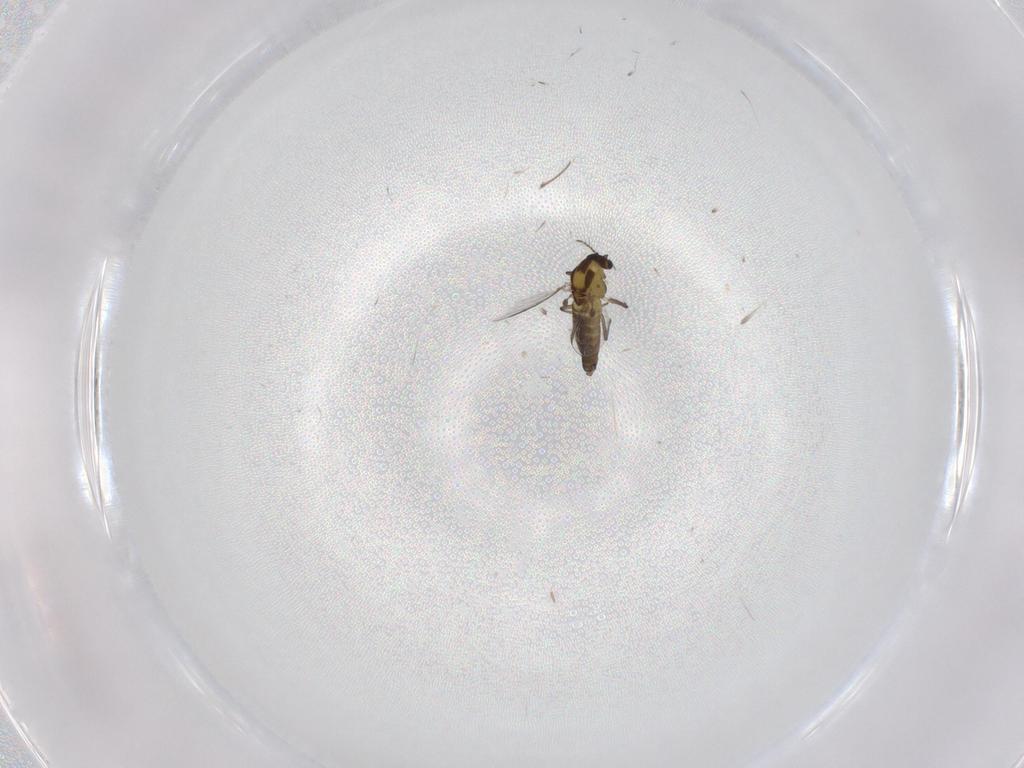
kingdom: Animalia
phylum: Arthropoda
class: Insecta
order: Diptera
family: Chironomidae
